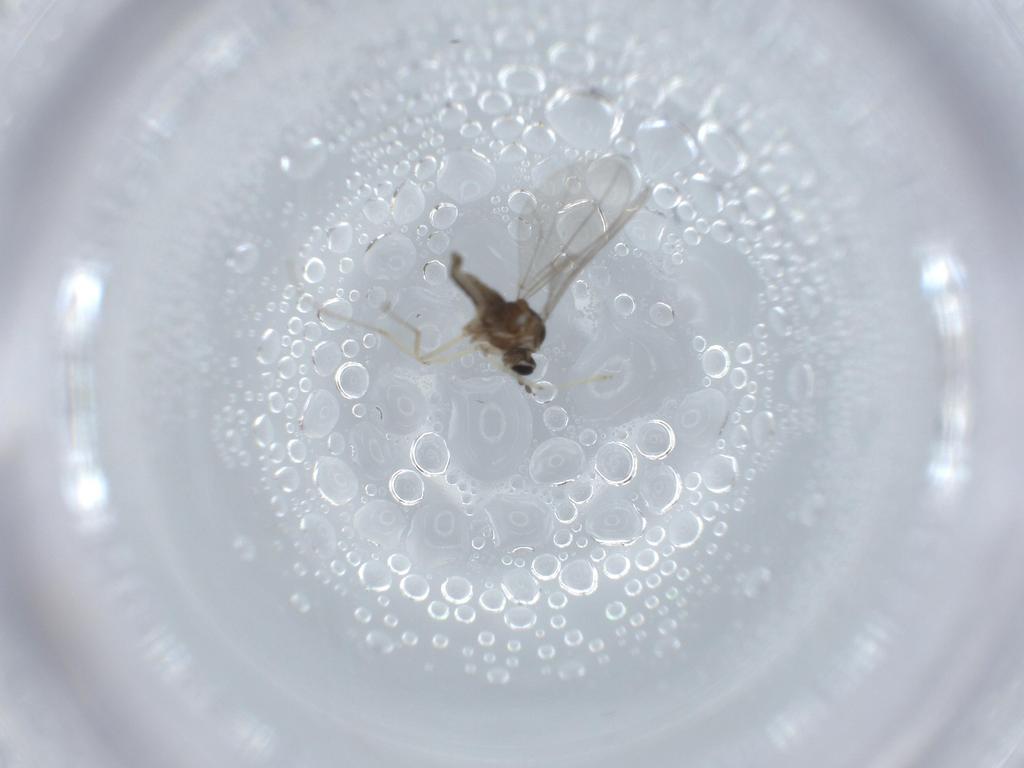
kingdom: Animalia
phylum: Arthropoda
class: Insecta
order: Diptera
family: Cecidomyiidae
